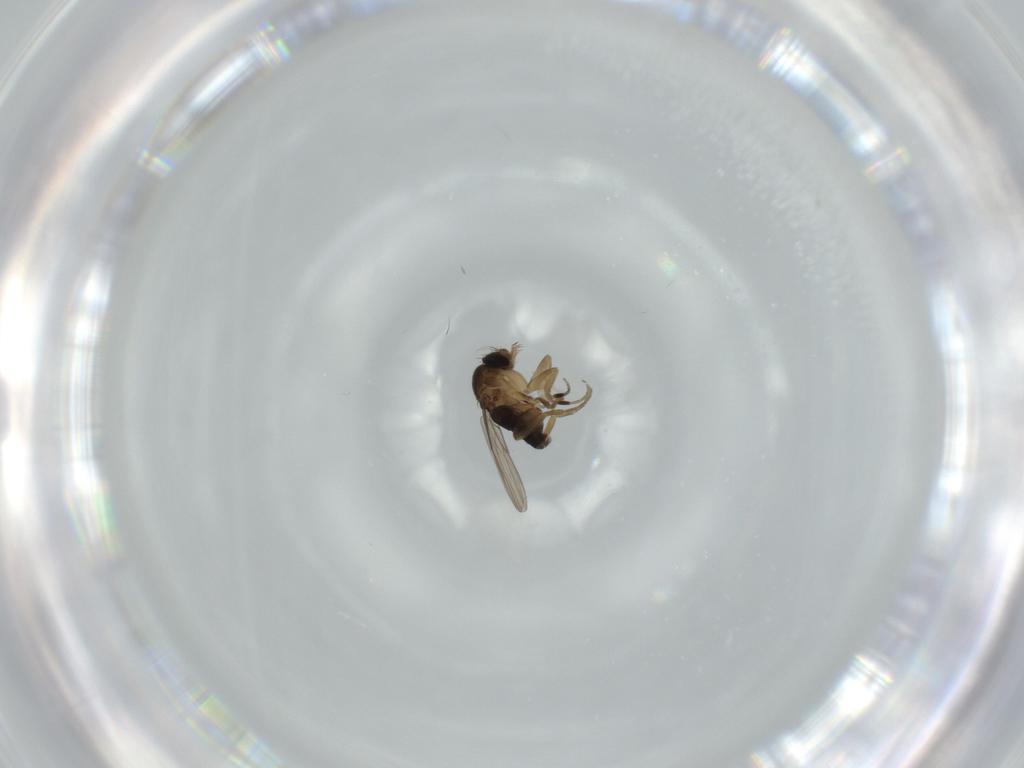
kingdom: Animalia
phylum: Arthropoda
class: Insecta
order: Diptera
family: Phoridae
